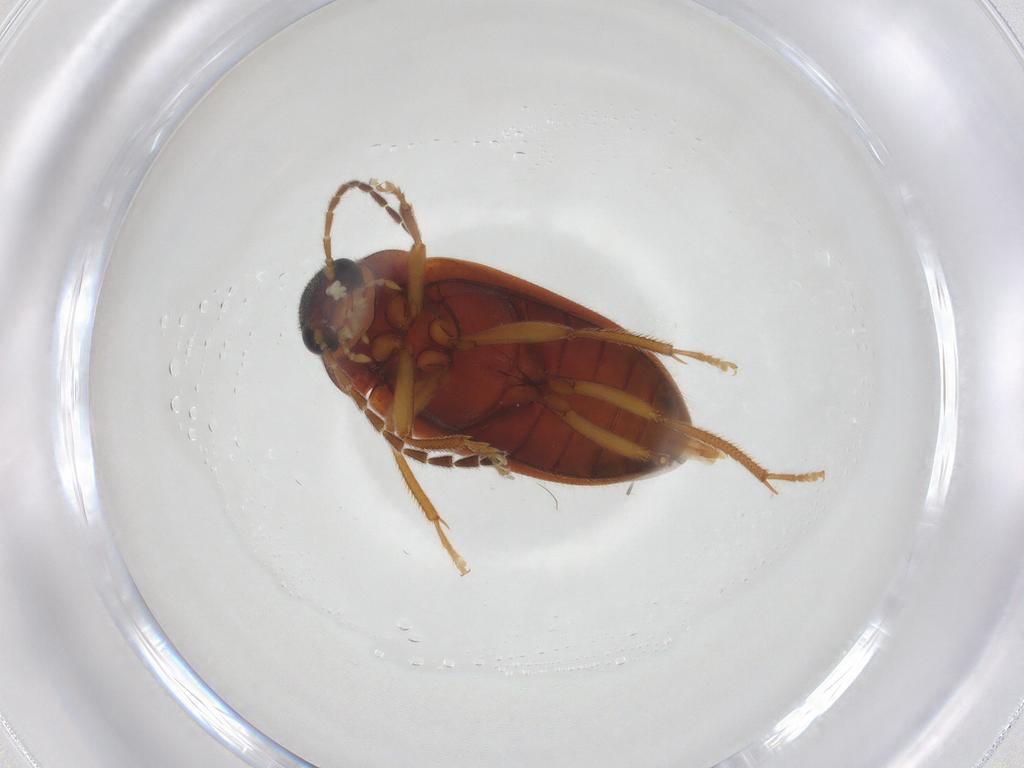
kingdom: Animalia
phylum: Arthropoda
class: Insecta
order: Coleoptera
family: Ptilodactylidae
